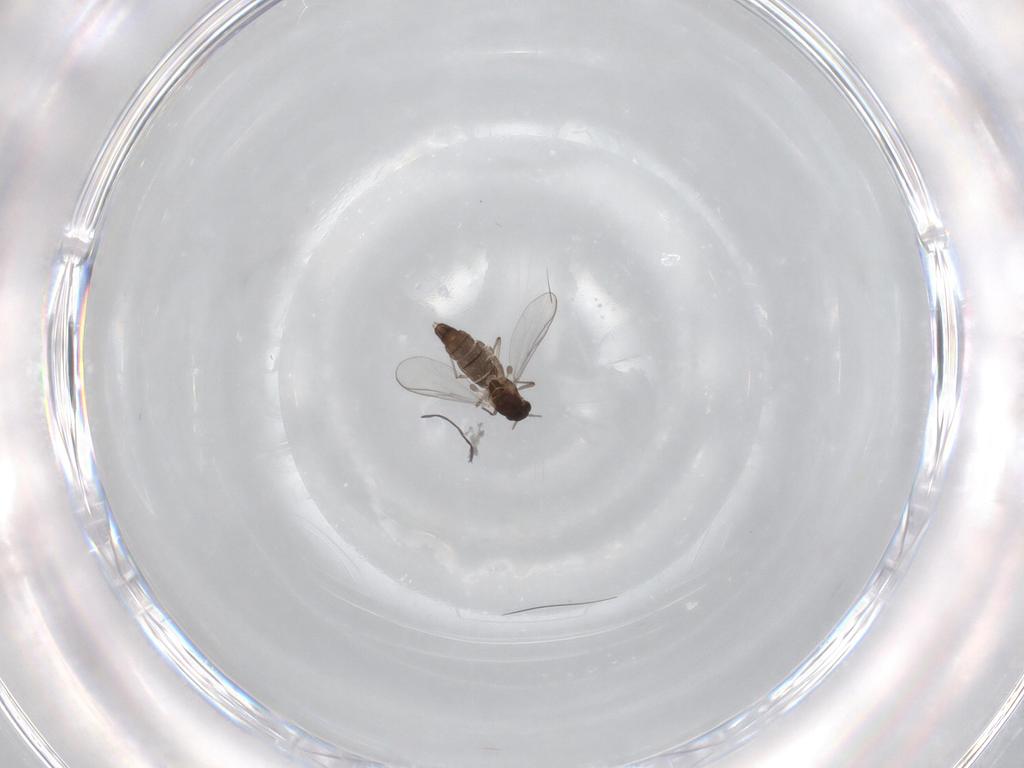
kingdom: Animalia
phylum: Arthropoda
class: Insecta
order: Diptera
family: Chironomidae
